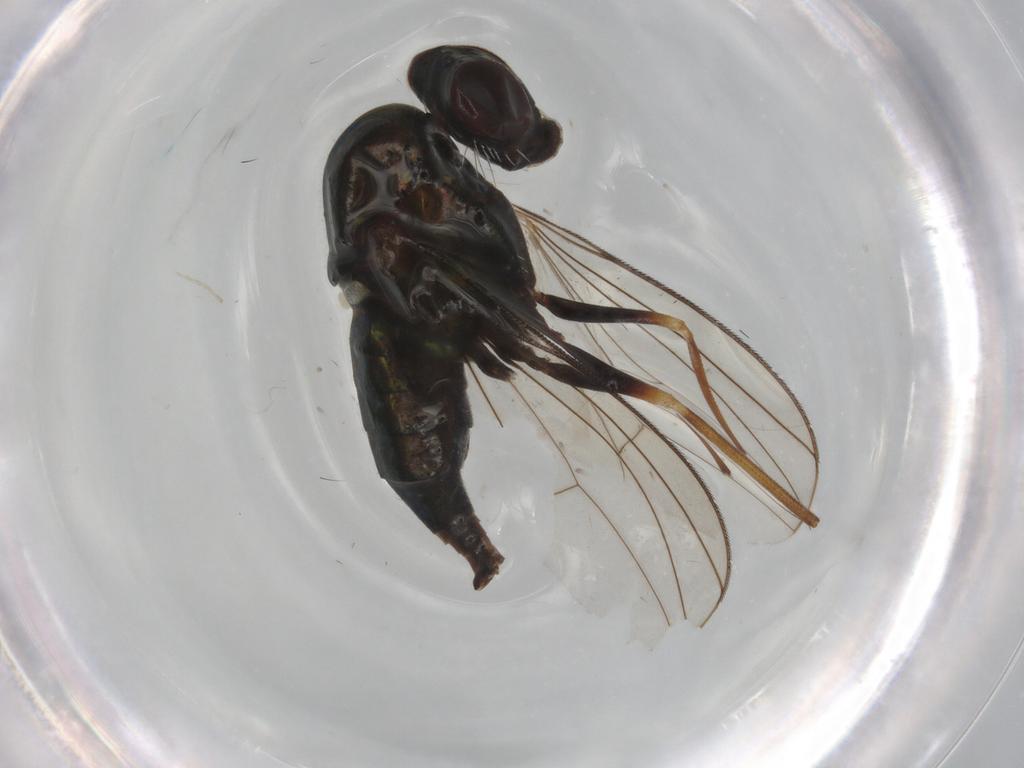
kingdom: Animalia
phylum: Arthropoda
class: Insecta
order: Diptera
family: Dolichopodidae
